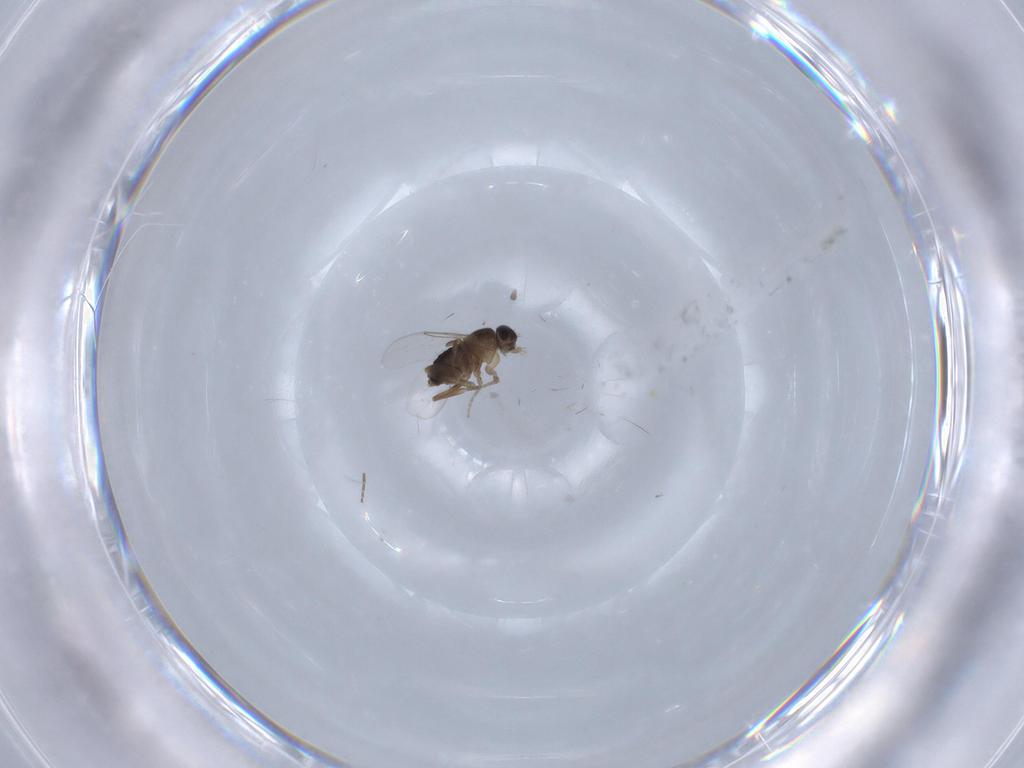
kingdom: Animalia
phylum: Arthropoda
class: Insecta
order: Diptera
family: Phoridae
